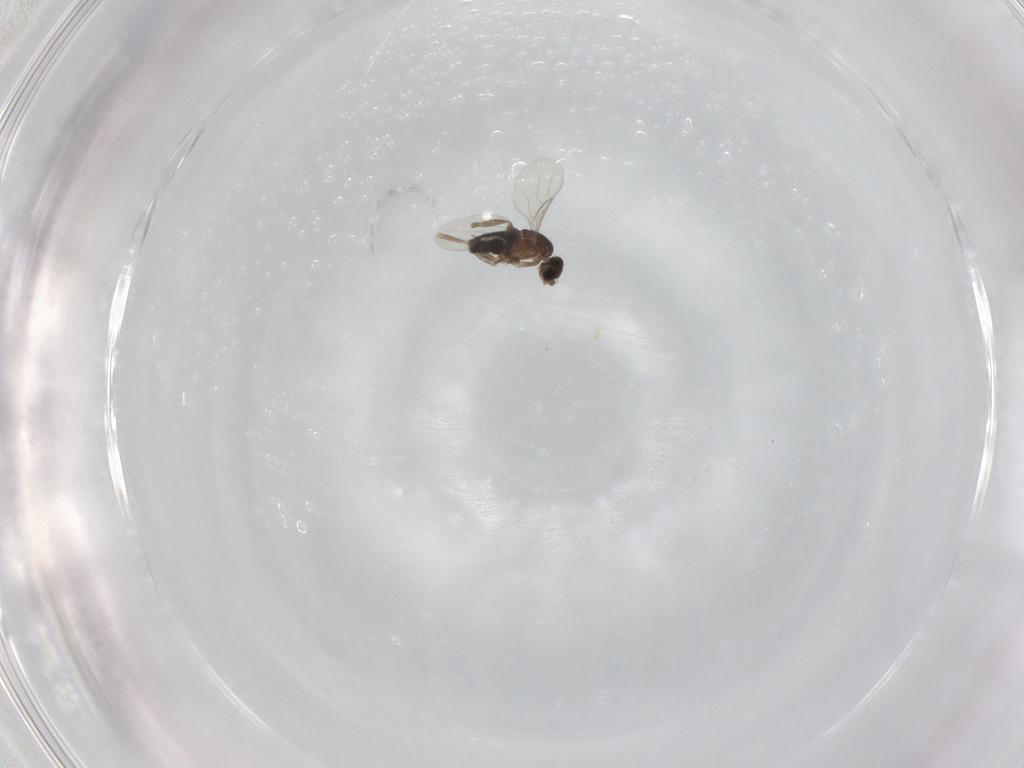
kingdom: Animalia
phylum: Arthropoda
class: Insecta
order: Diptera
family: Phoridae
